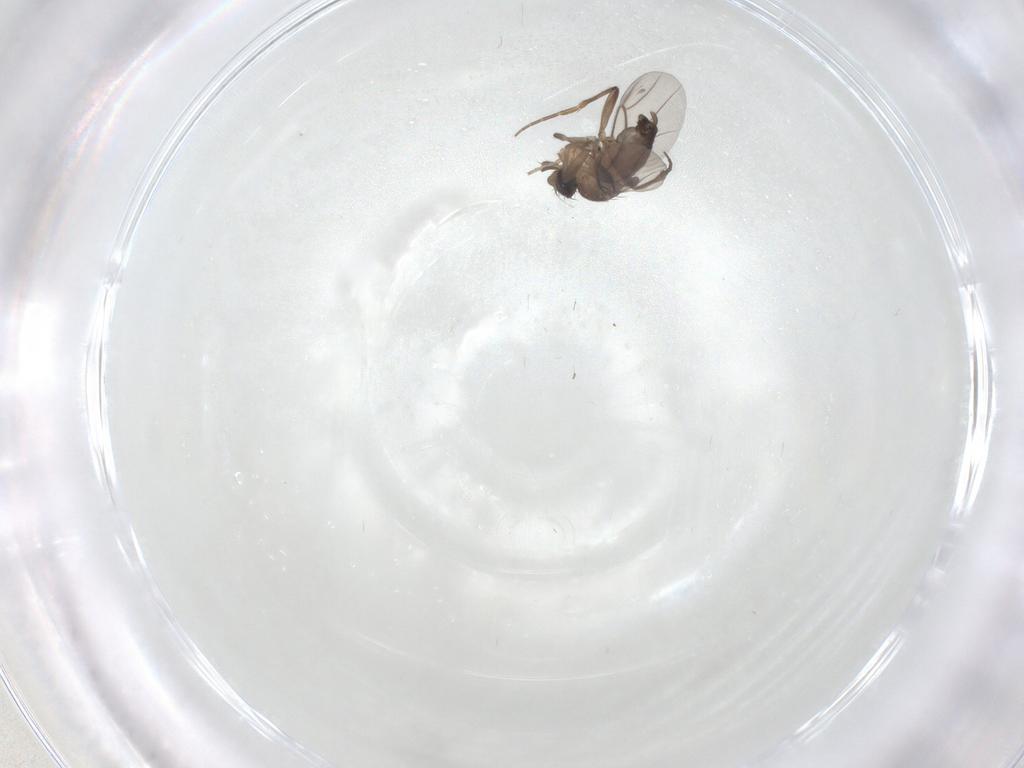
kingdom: Animalia
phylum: Arthropoda
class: Insecta
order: Diptera
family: Phoridae
